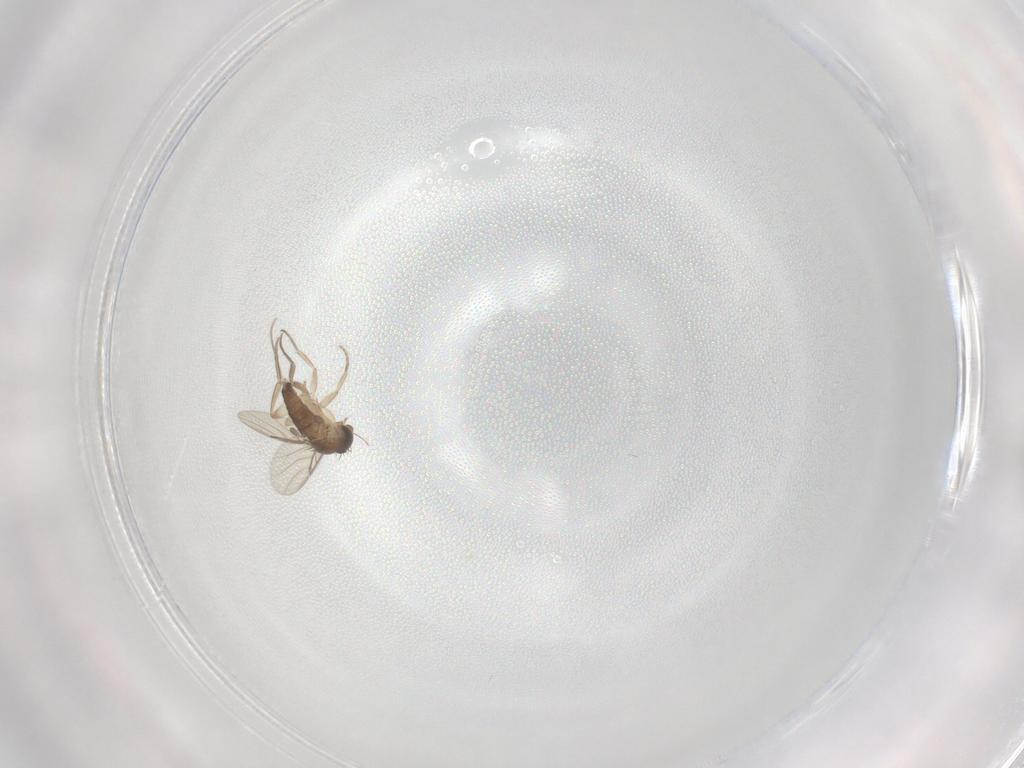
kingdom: Animalia
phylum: Arthropoda
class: Insecta
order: Diptera
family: Phoridae
